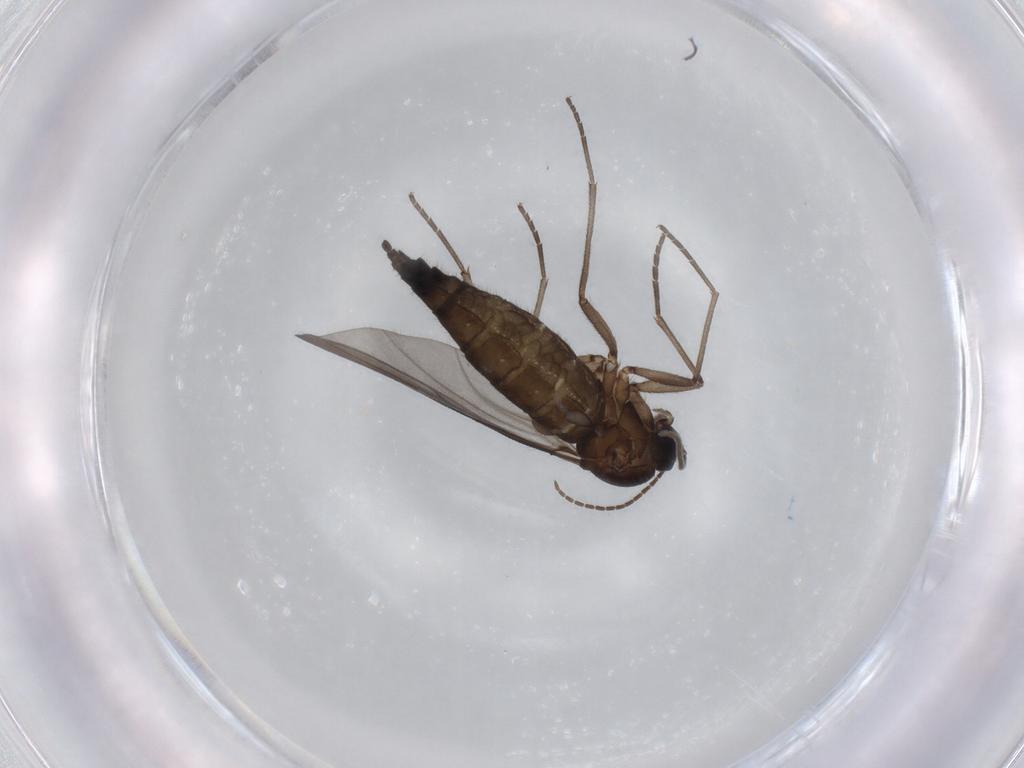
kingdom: Animalia
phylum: Arthropoda
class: Insecta
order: Diptera
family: Sciaridae
